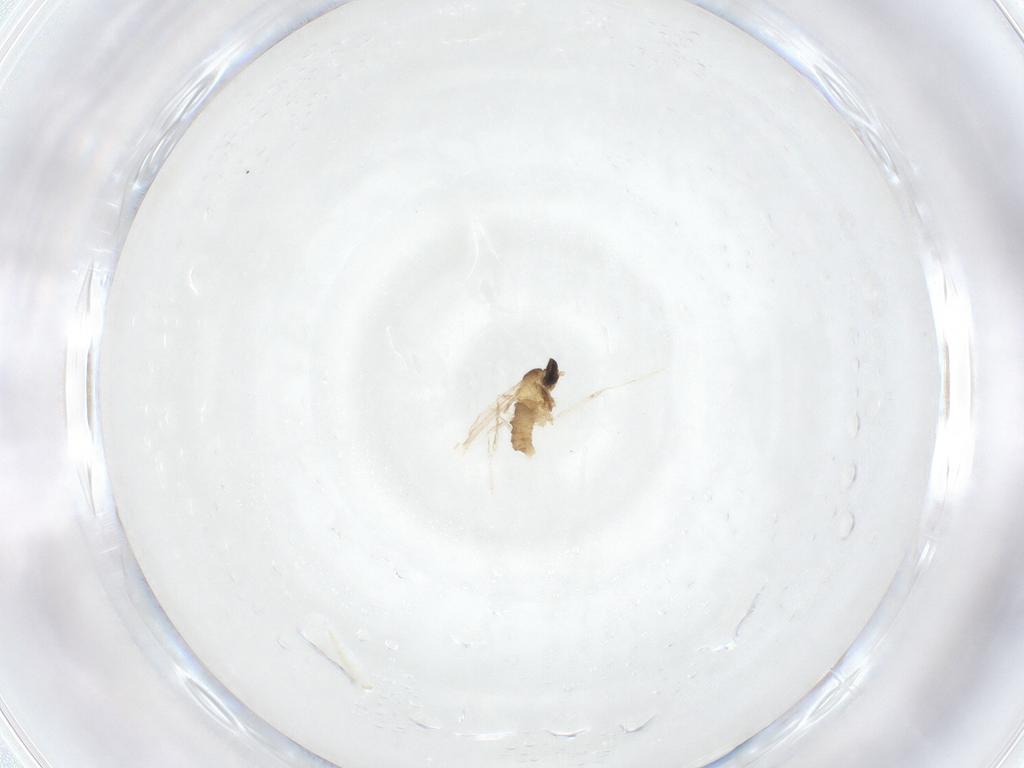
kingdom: Animalia
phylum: Arthropoda
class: Insecta
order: Diptera
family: Cecidomyiidae
